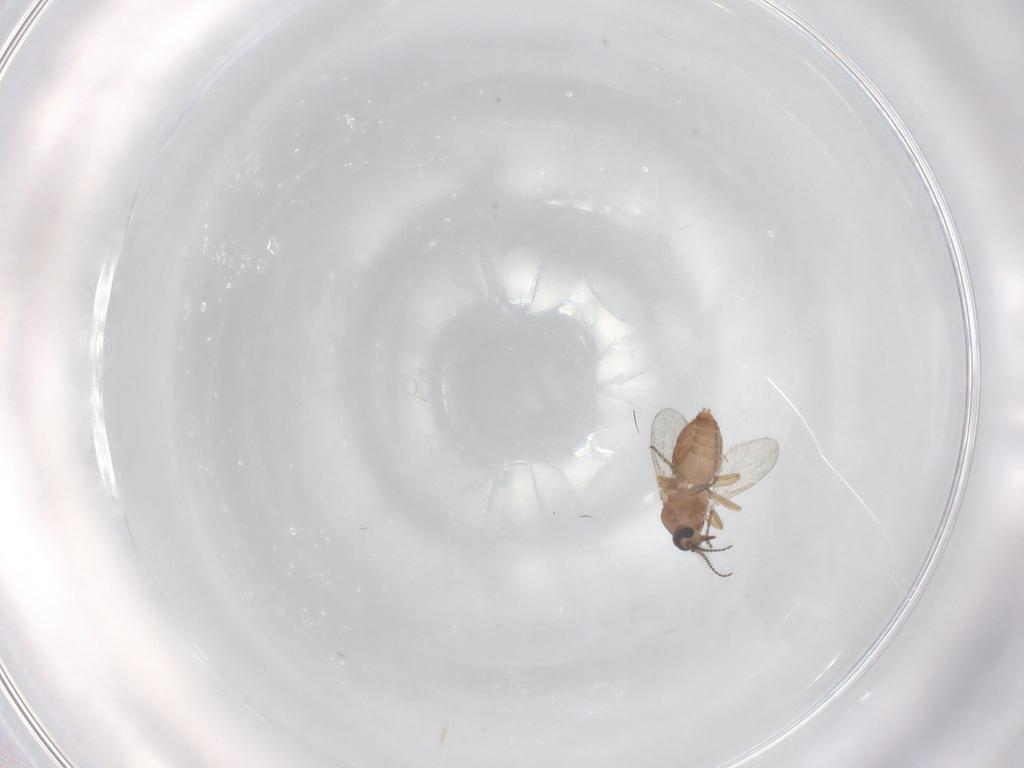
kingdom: Animalia
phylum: Arthropoda
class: Insecta
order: Diptera
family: Ceratopogonidae
